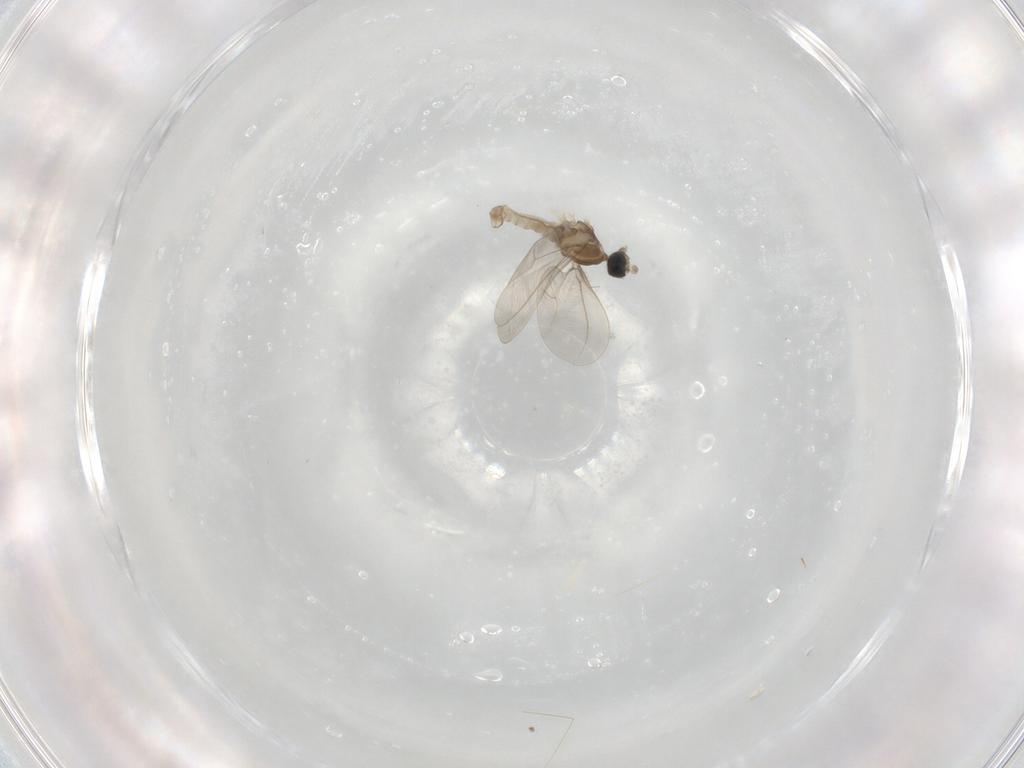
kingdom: Animalia
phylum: Arthropoda
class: Insecta
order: Diptera
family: Cecidomyiidae
